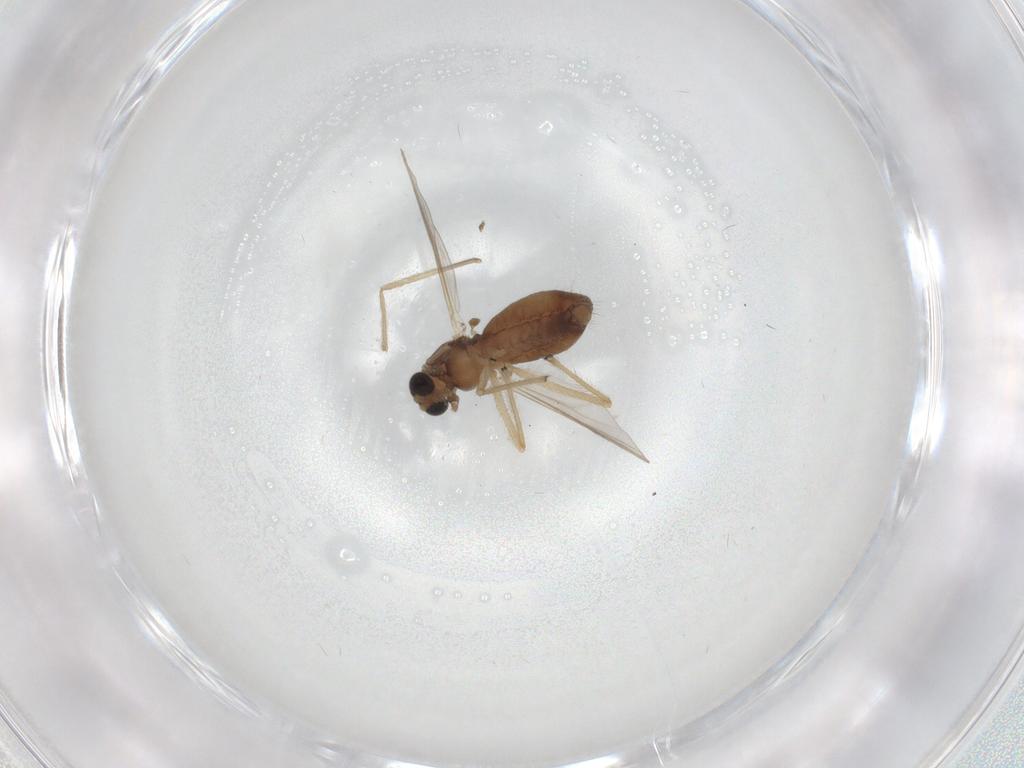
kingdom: Animalia
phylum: Arthropoda
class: Insecta
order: Diptera
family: Chironomidae
